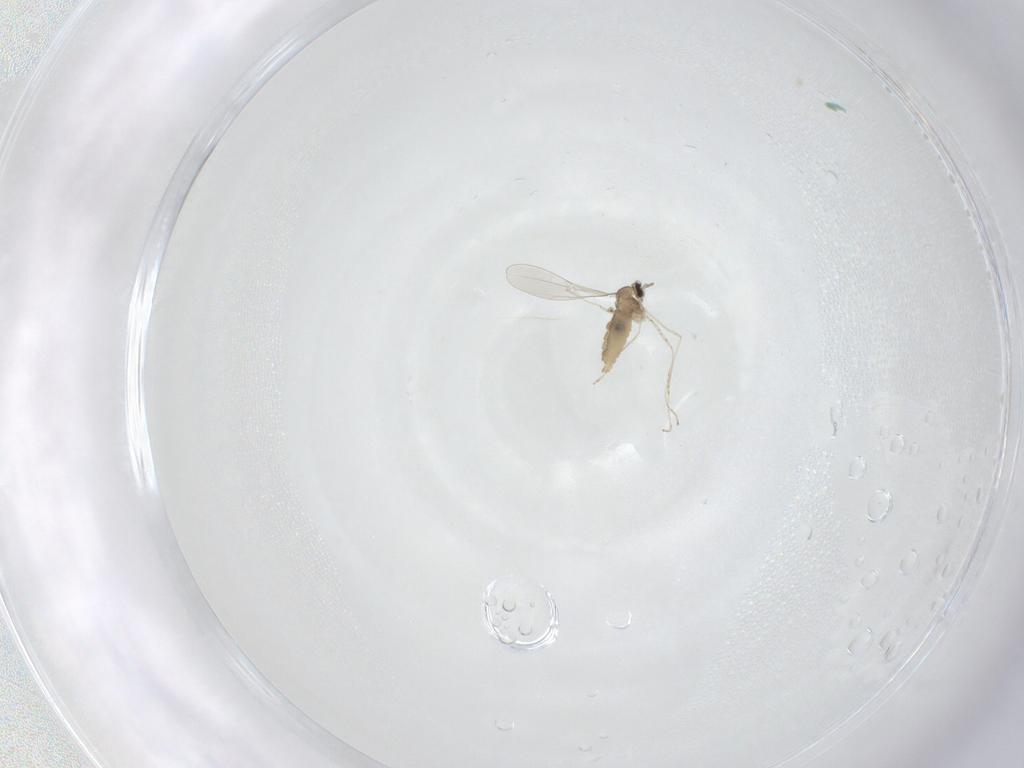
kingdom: Animalia
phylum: Arthropoda
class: Insecta
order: Diptera
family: Cecidomyiidae
